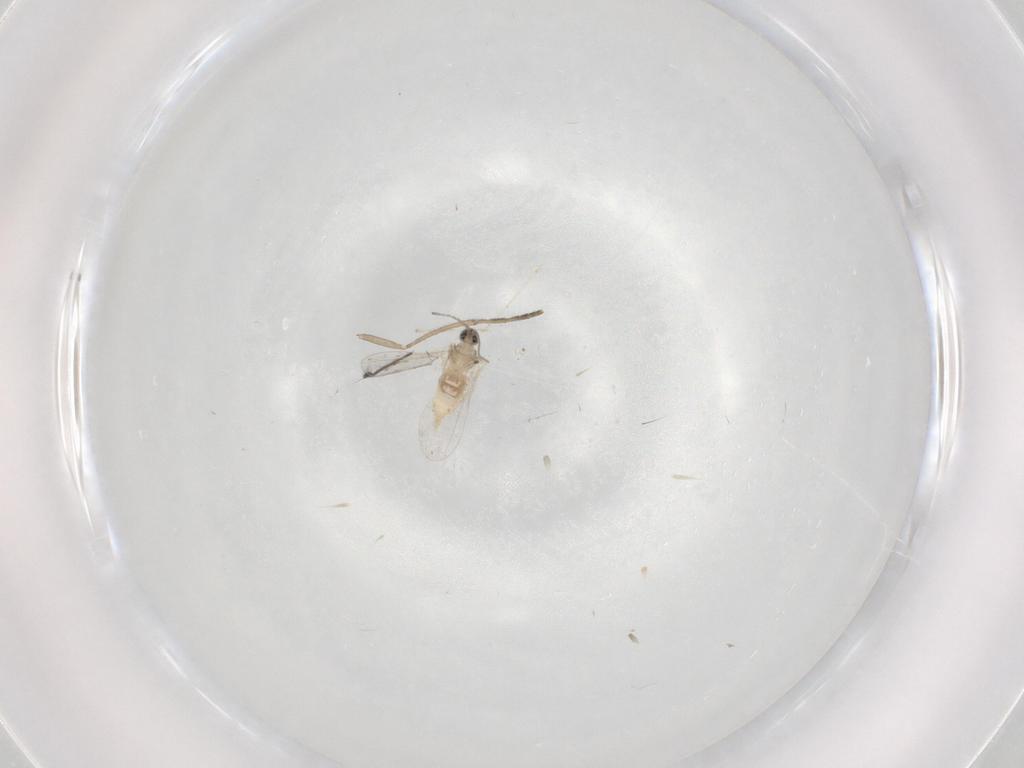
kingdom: Animalia
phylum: Arthropoda
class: Insecta
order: Diptera
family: Chironomidae
